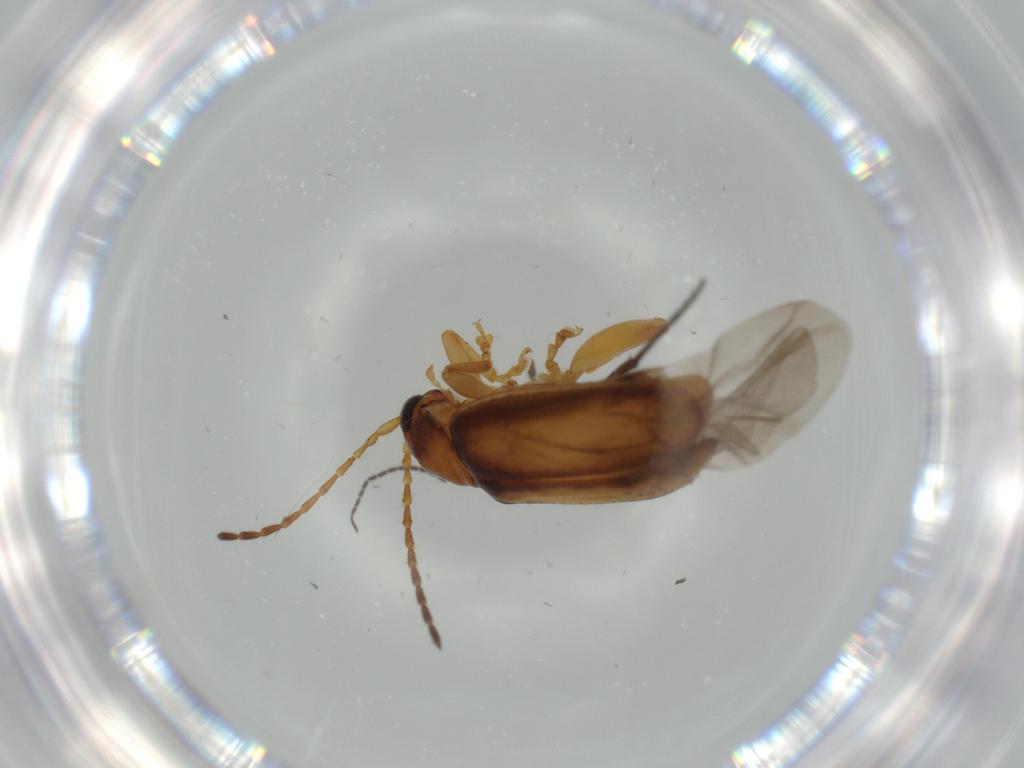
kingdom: Animalia
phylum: Arthropoda
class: Insecta
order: Coleoptera
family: Chrysomelidae
